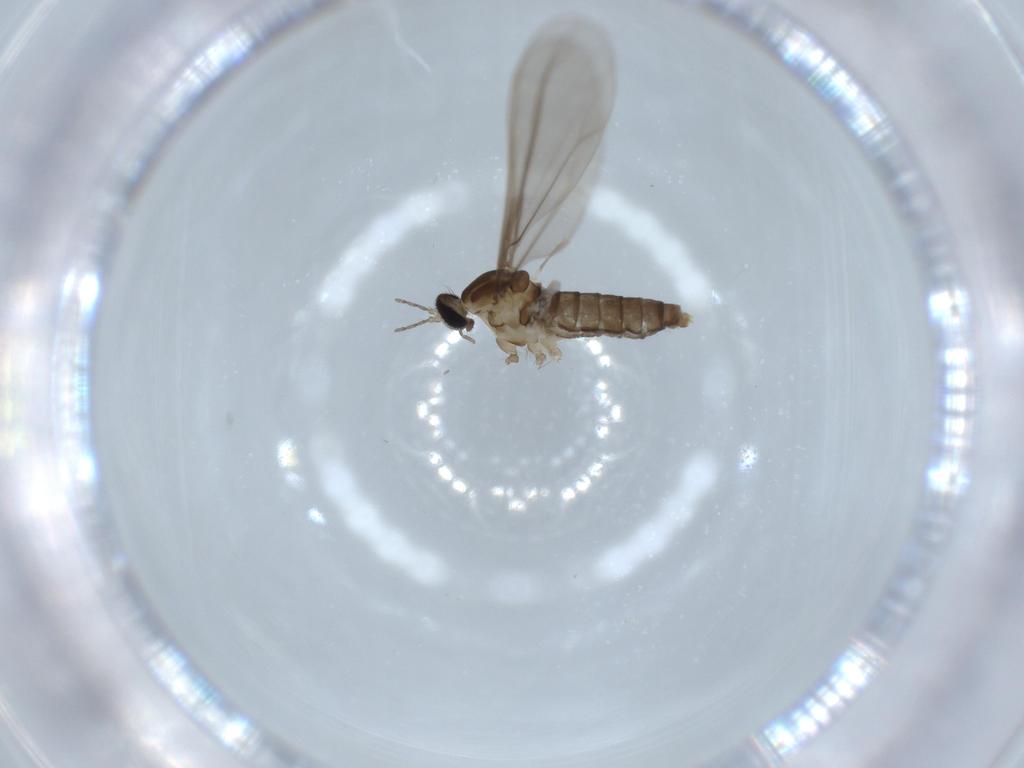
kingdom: Animalia
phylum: Arthropoda
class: Insecta
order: Diptera
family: Cecidomyiidae
